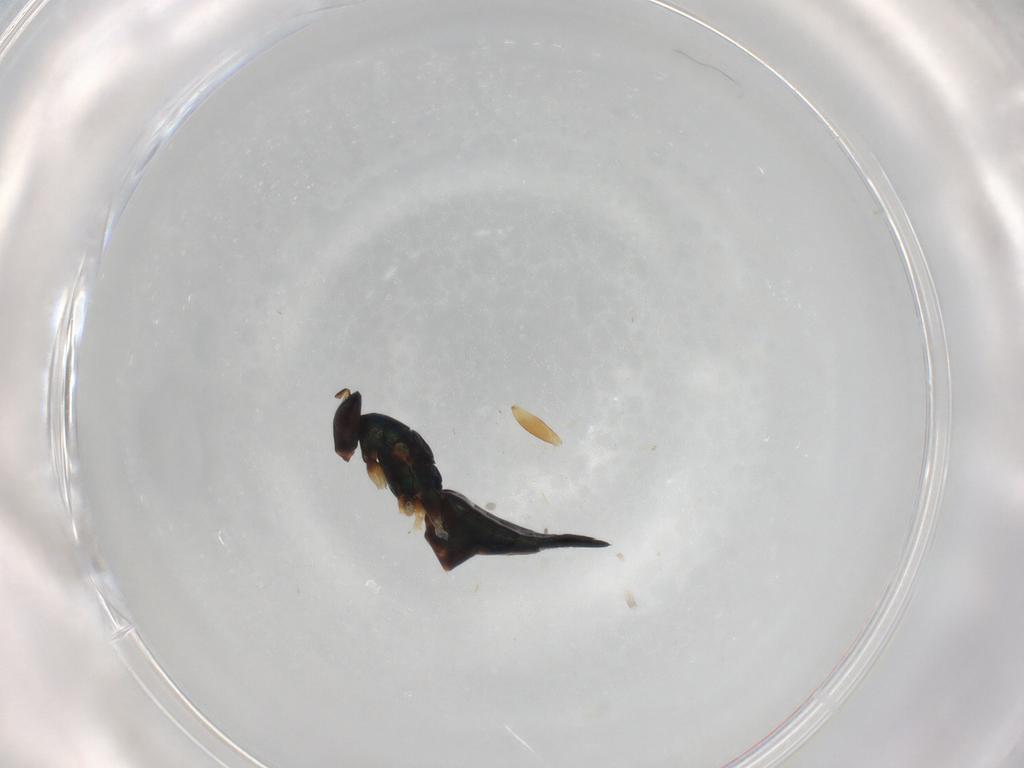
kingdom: Animalia
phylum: Arthropoda
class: Insecta
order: Hymenoptera
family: Eulophidae
